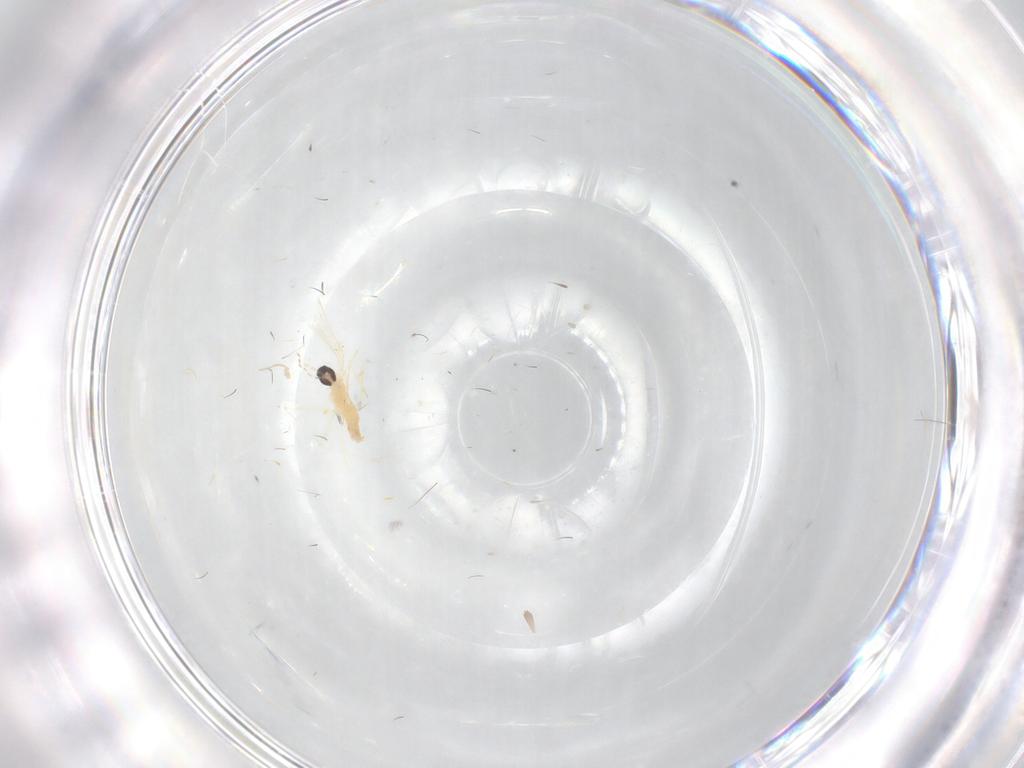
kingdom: Animalia
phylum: Arthropoda
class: Insecta
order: Diptera
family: Cecidomyiidae
